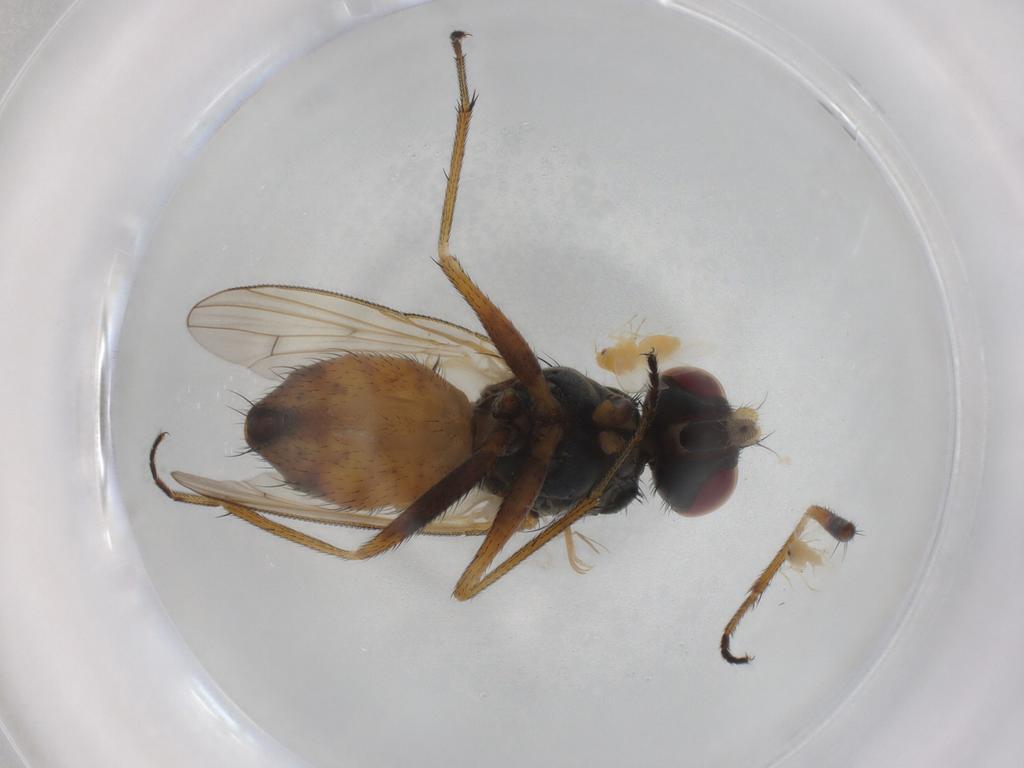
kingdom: Animalia
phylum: Arthropoda
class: Insecta
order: Diptera
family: Muscidae
